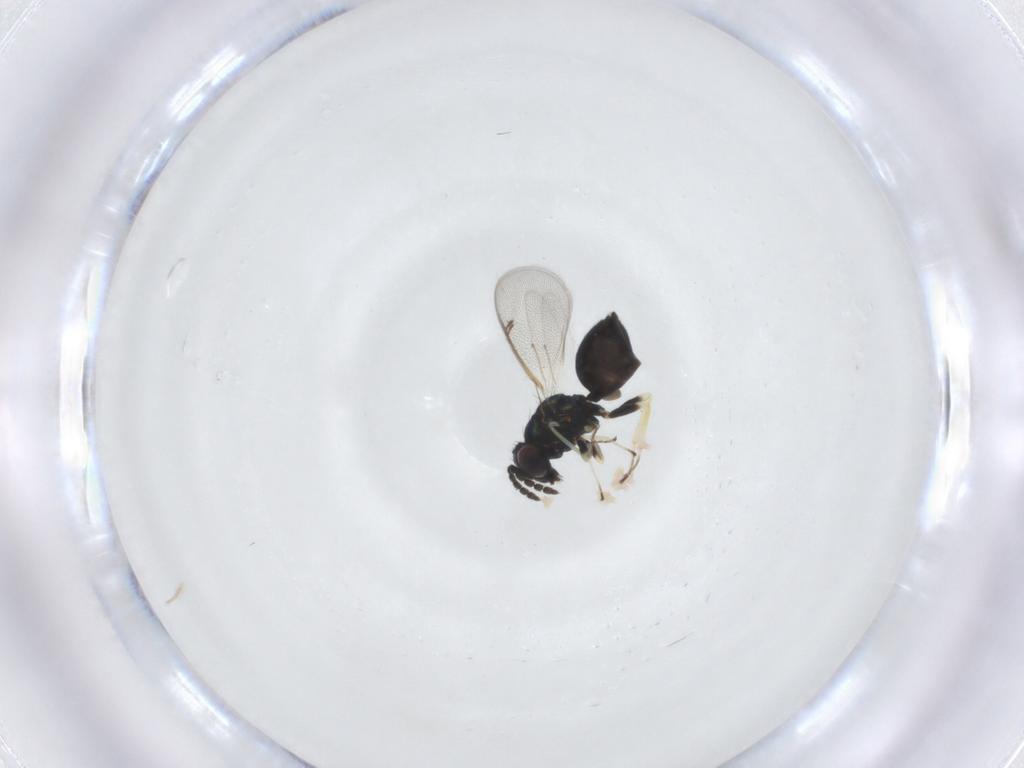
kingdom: Animalia
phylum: Arthropoda
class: Insecta
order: Hymenoptera
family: Eulophidae
